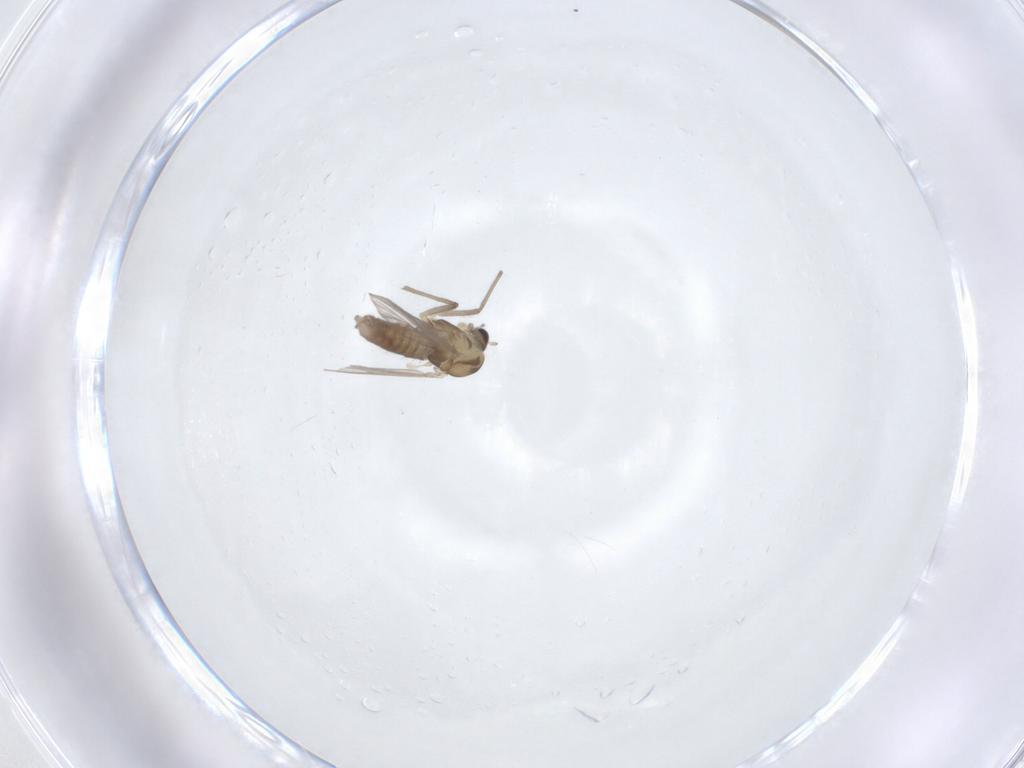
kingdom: Animalia
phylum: Arthropoda
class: Insecta
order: Diptera
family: Chironomidae
